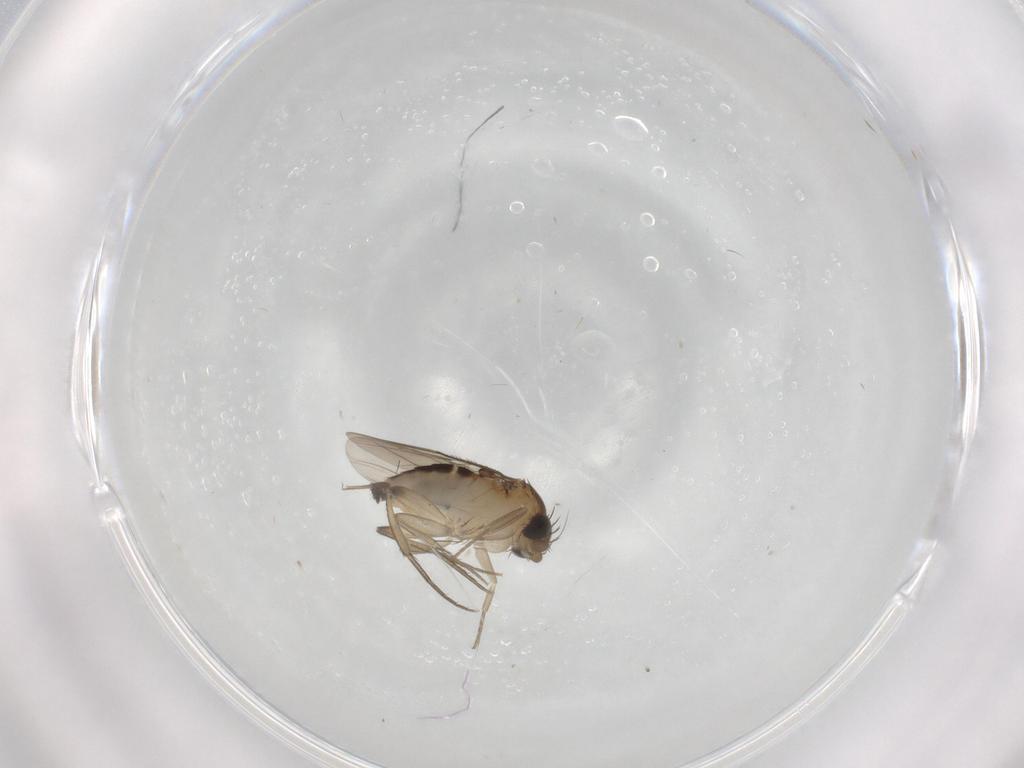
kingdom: Animalia
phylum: Arthropoda
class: Insecta
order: Diptera
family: Phoridae
